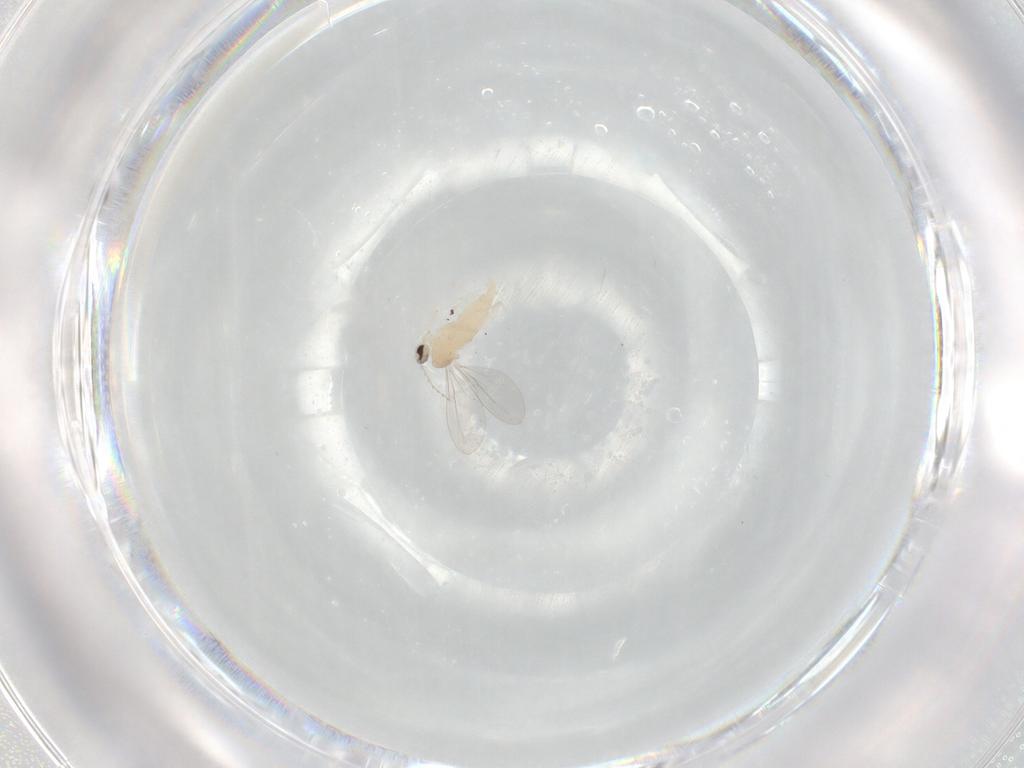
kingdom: Animalia
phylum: Arthropoda
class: Insecta
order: Diptera
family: Cecidomyiidae
